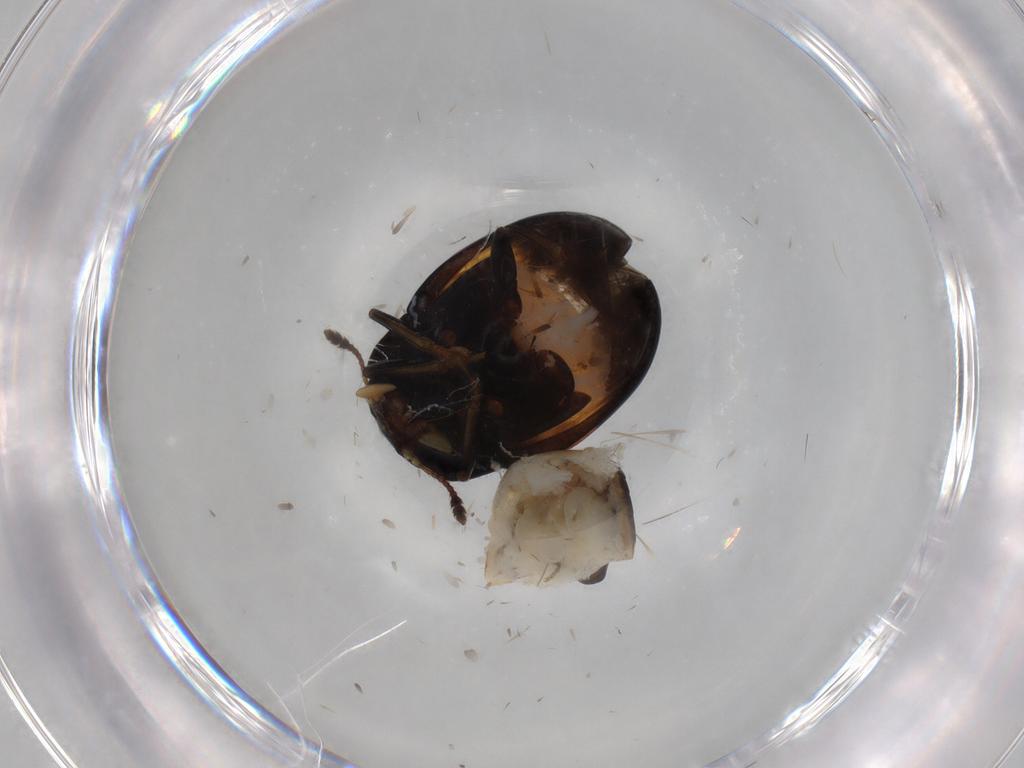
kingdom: Animalia
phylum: Arthropoda
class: Insecta
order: Coleoptera
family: Erotylidae
